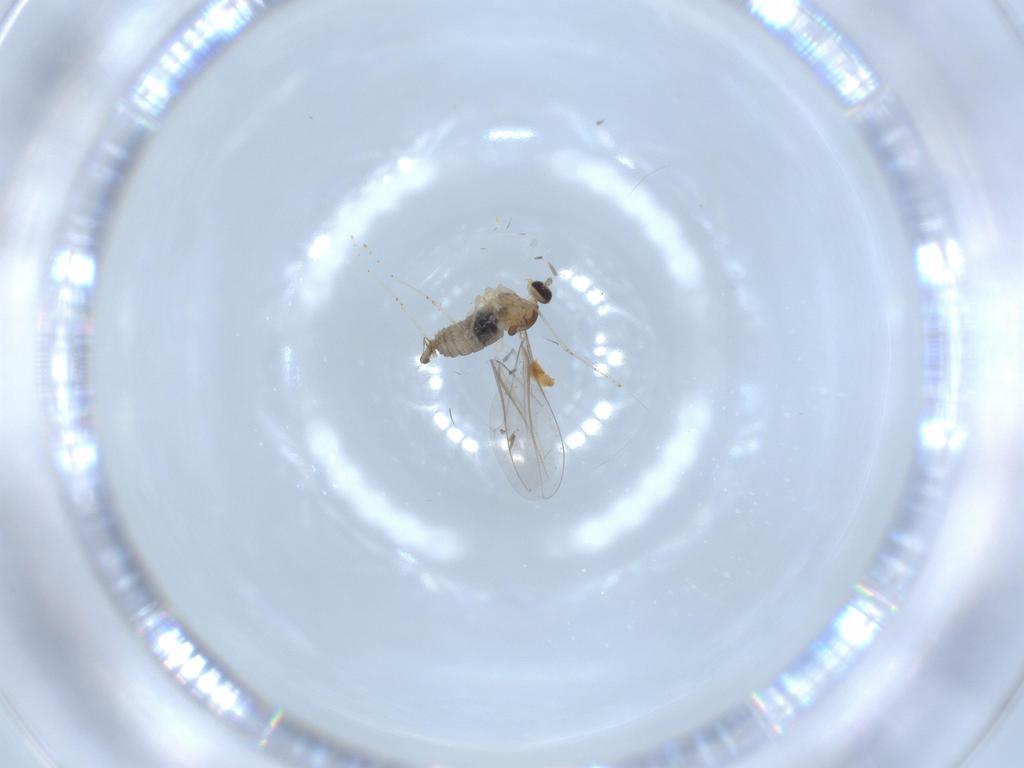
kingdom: Animalia
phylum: Arthropoda
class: Insecta
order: Diptera
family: Cecidomyiidae
